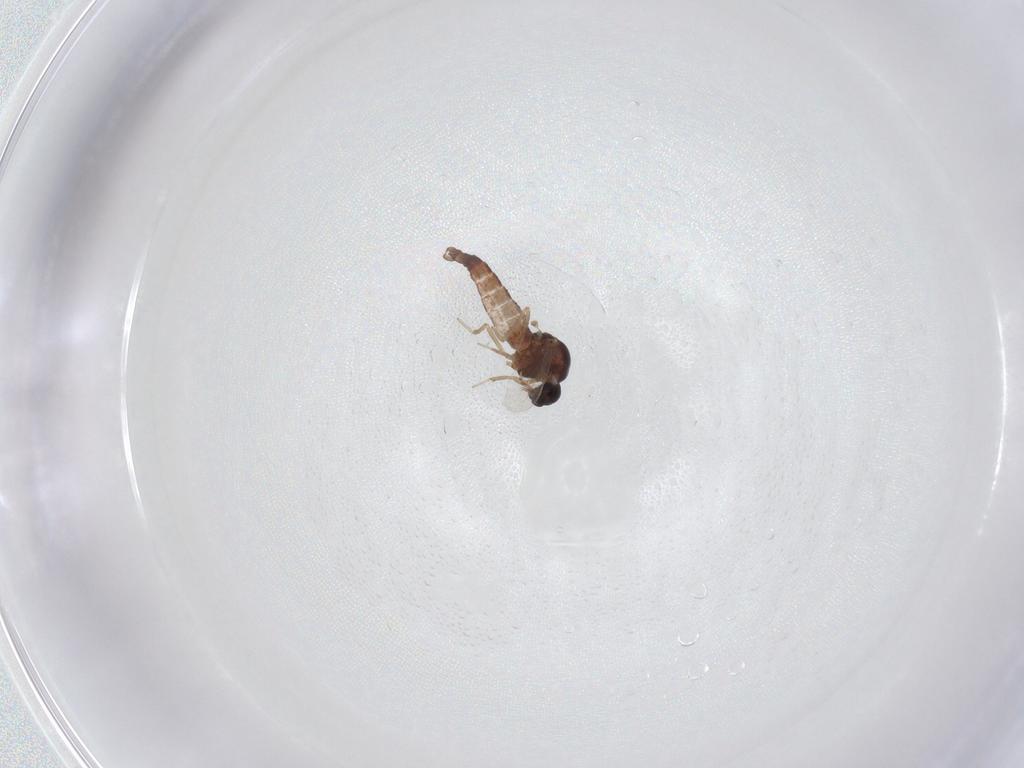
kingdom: Animalia
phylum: Arthropoda
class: Insecta
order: Diptera
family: Ceratopogonidae
